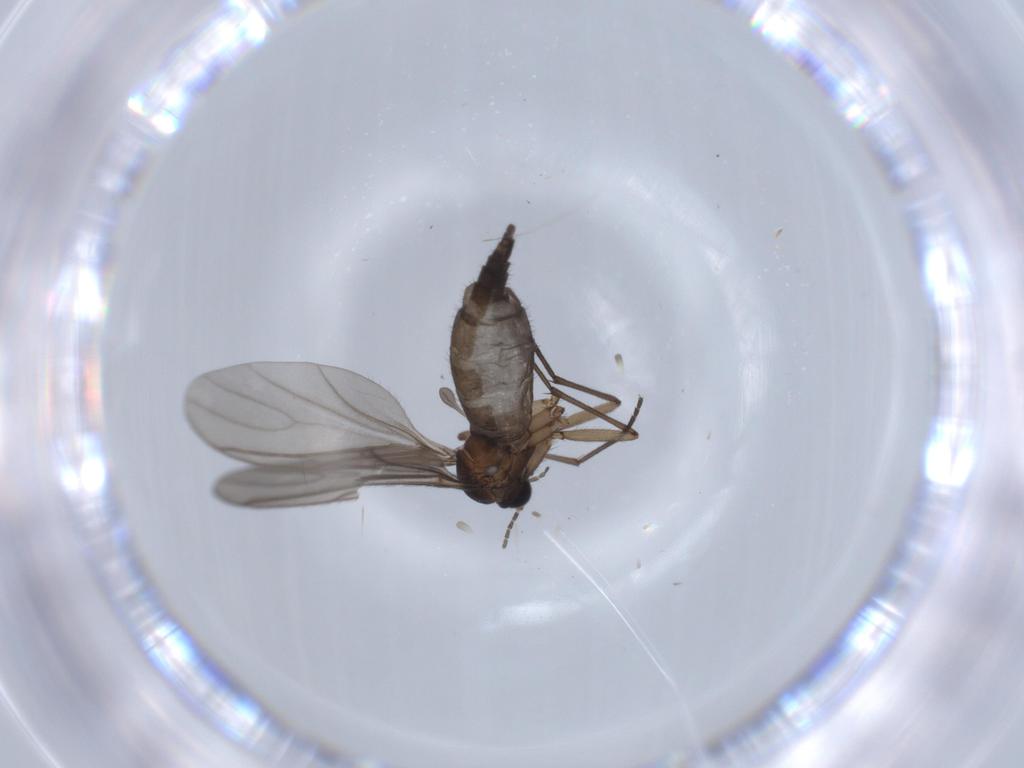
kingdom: Animalia
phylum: Arthropoda
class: Insecta
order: Diptera
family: Sciaridae
